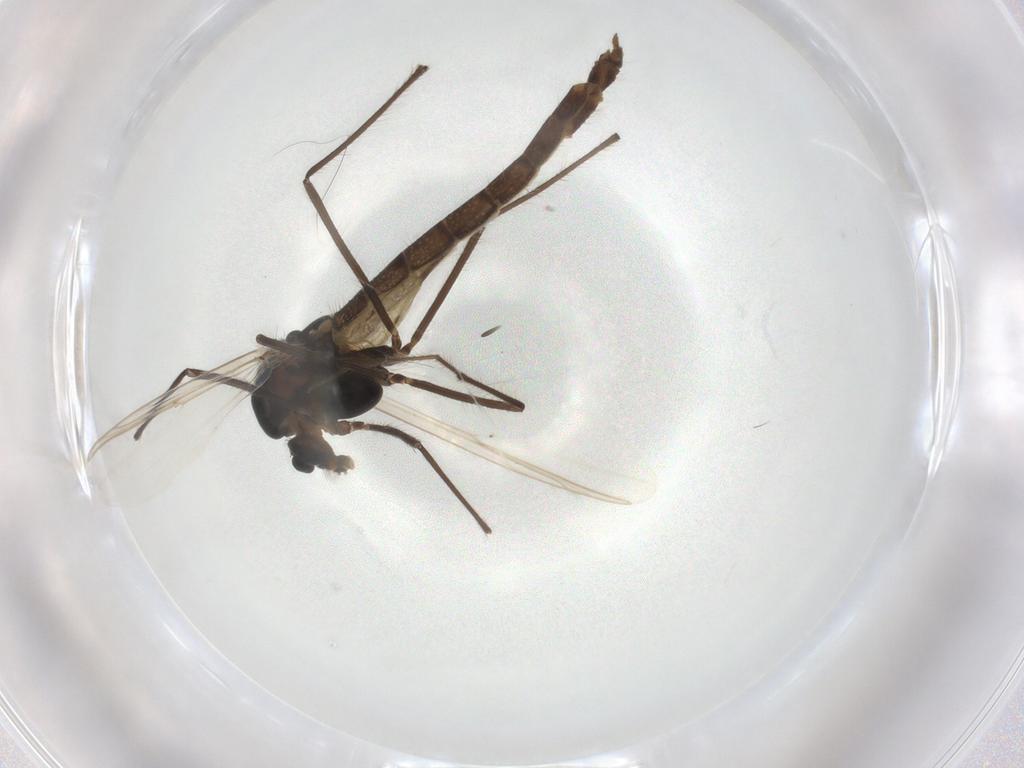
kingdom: Animalia
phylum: Arthropoda
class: Insecta
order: Diptera
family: Chironomidae
